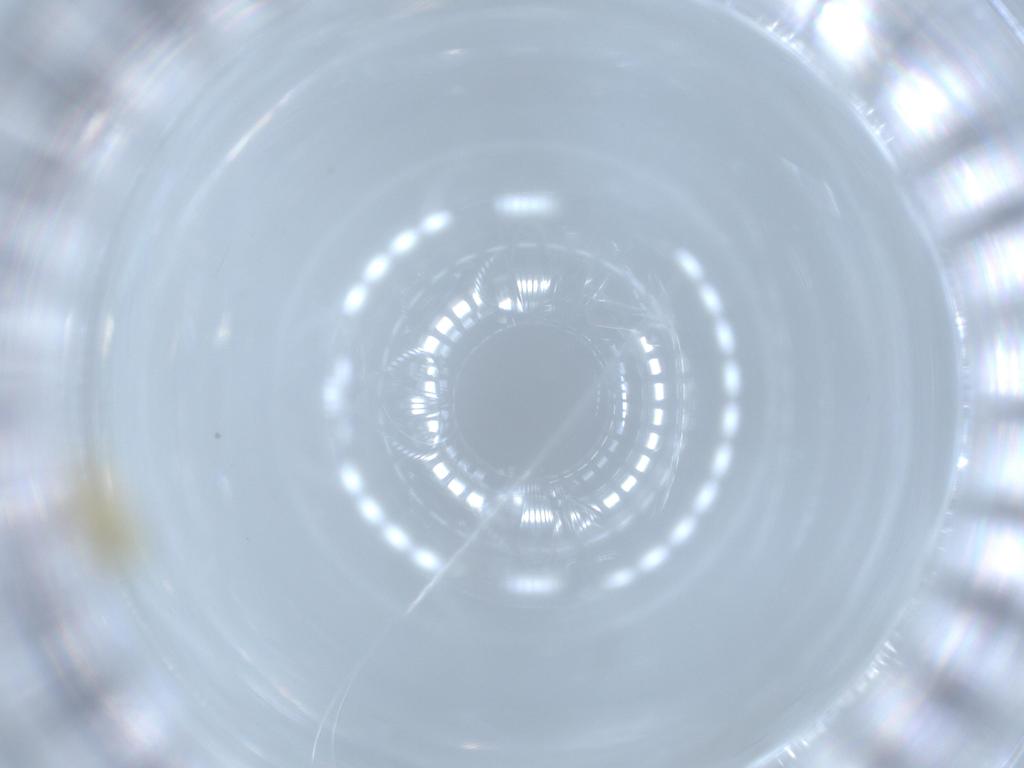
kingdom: Animalia
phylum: Arthropoda
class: Insecta
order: Hemiptera
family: Aleyrodidae
